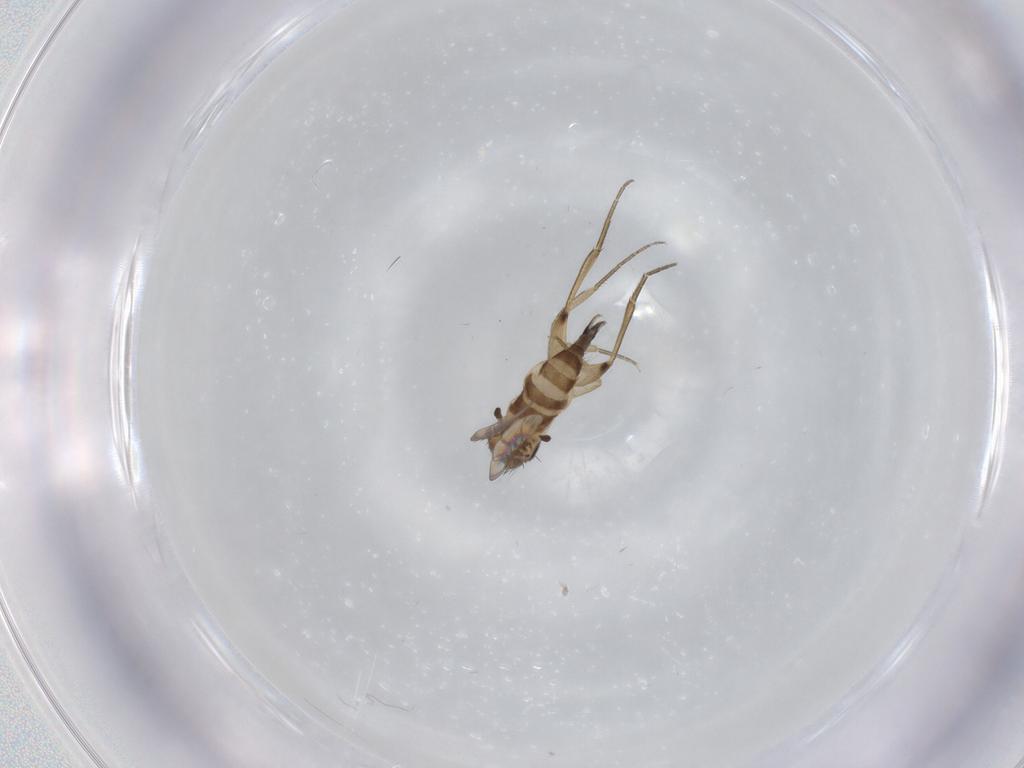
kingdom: Animalia
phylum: Arthropoda
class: Insecta
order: Diptera
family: Phoridae
